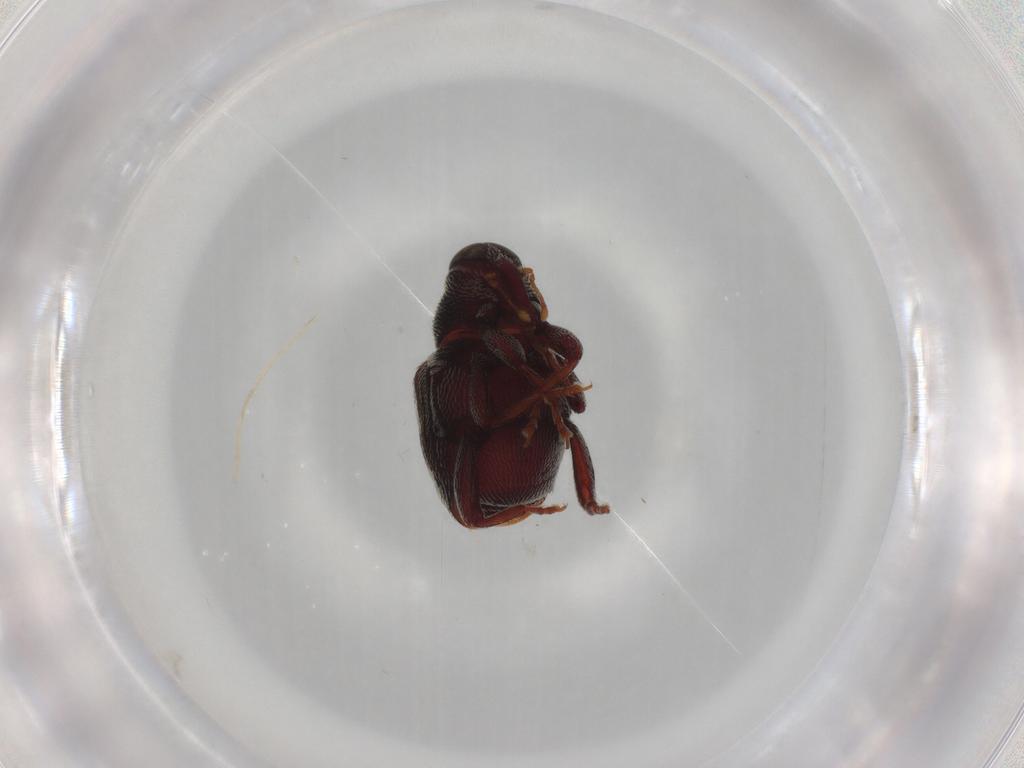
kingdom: Animalia
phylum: Arthropoda
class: Insecta
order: Coleoptera
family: Curculionidae
